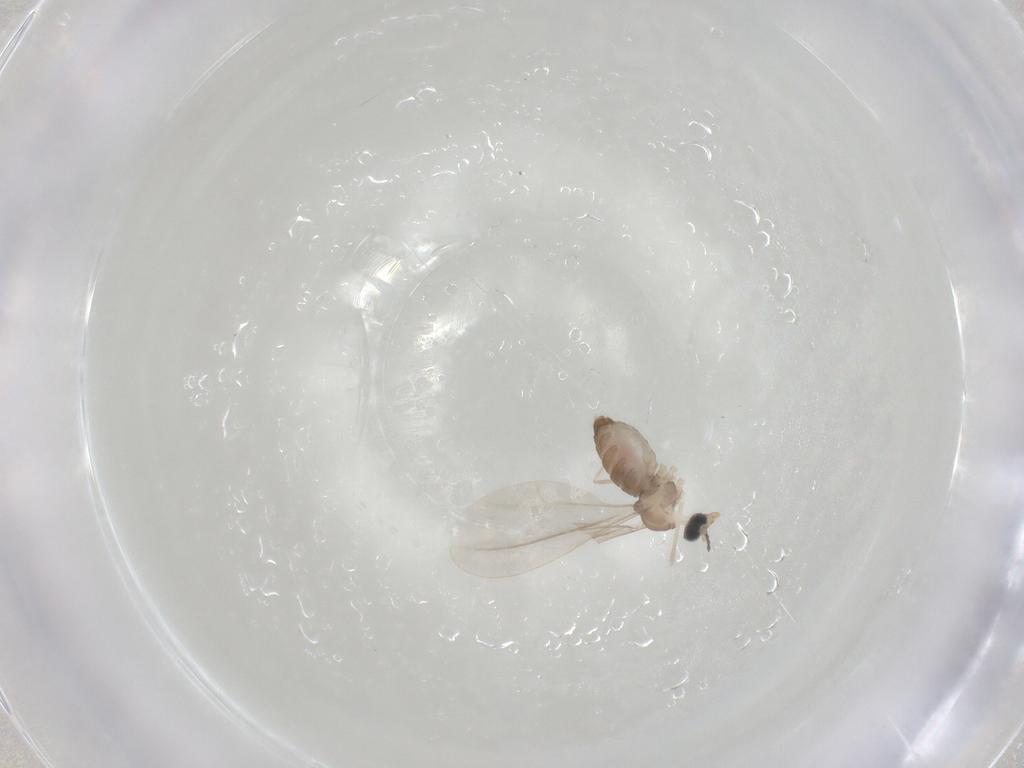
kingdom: Animalia
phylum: Arthropoda
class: Insecta
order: Diptera
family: Cecidomyiidae
